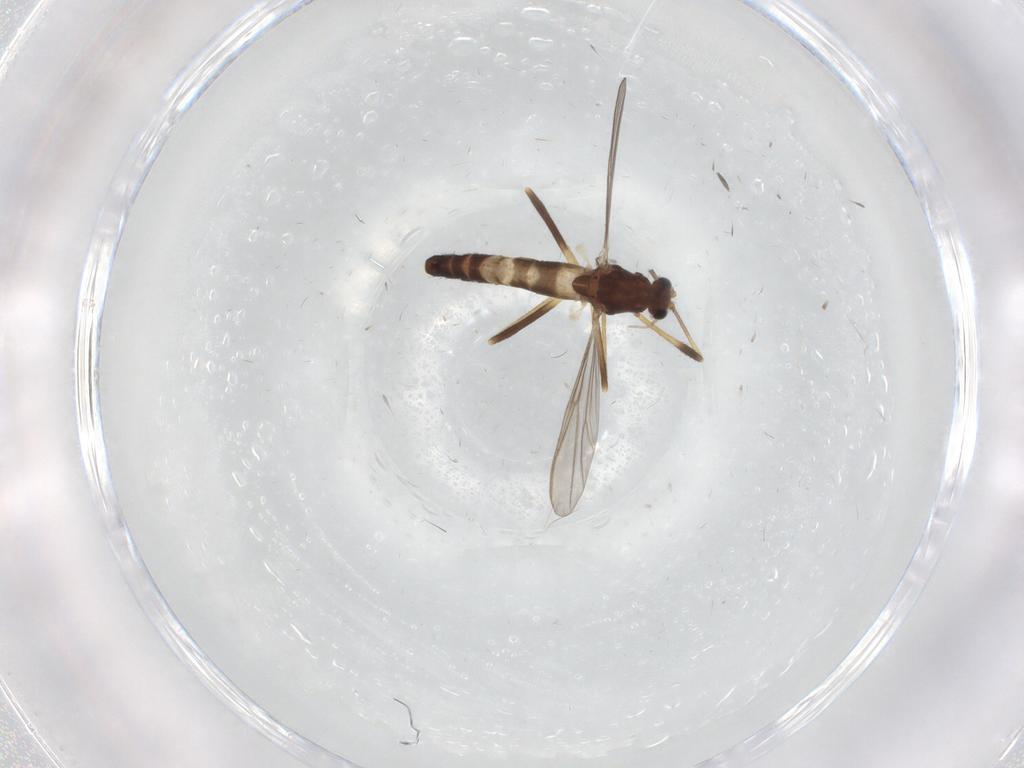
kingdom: Animalia
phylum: Arthropoda
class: Insecta
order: Diptera
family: Chironomidae
